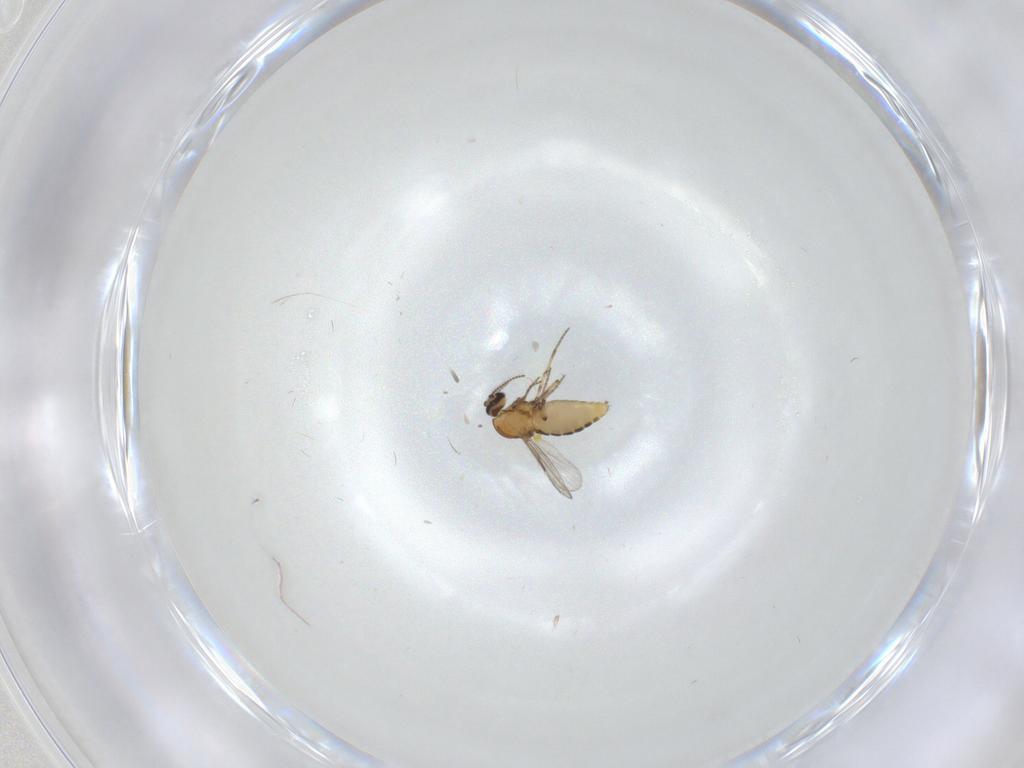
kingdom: Animalia
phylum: Arthropoda
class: Insecta
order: Diptera
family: Ceratopogonidae
